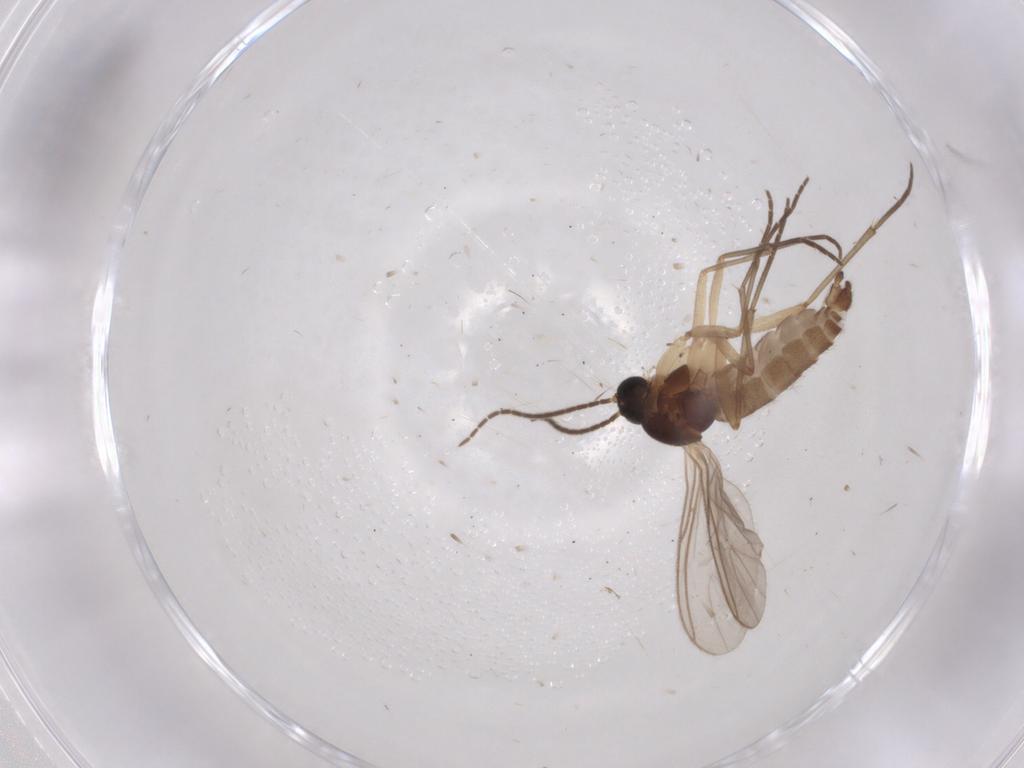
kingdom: Animalia
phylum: Arthropoda
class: Insecta
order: Diptera
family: Sciaridae
